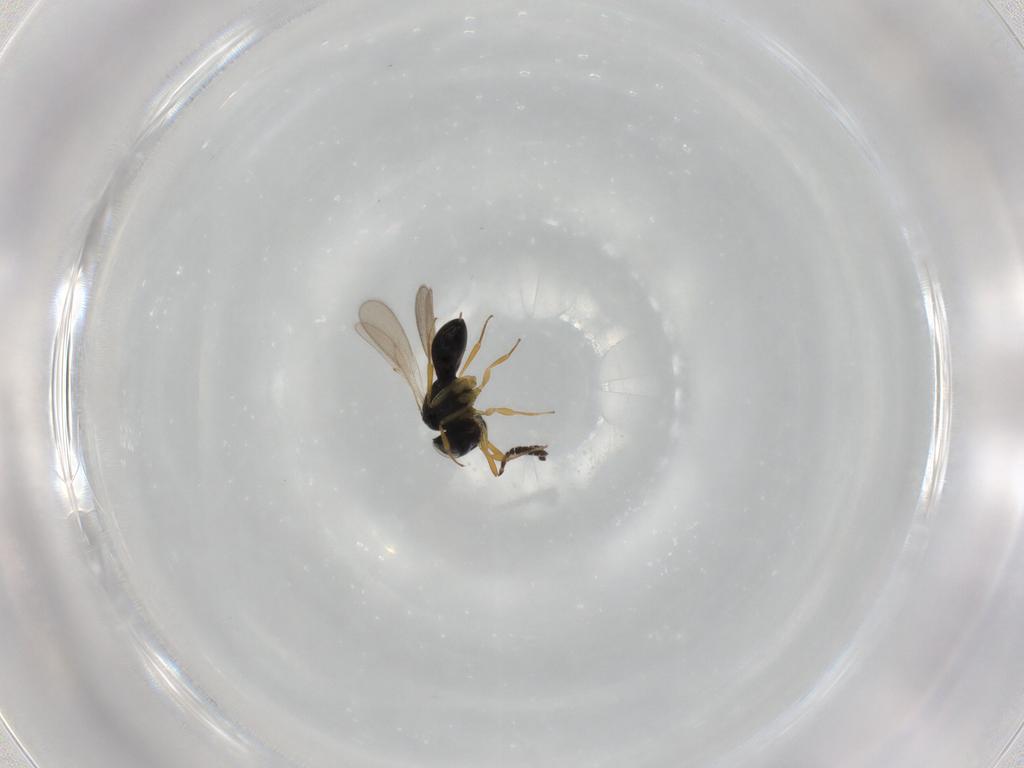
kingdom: Animalia
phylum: Arthropoda
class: Insecta
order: Hymenoptera
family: Scelionidae
